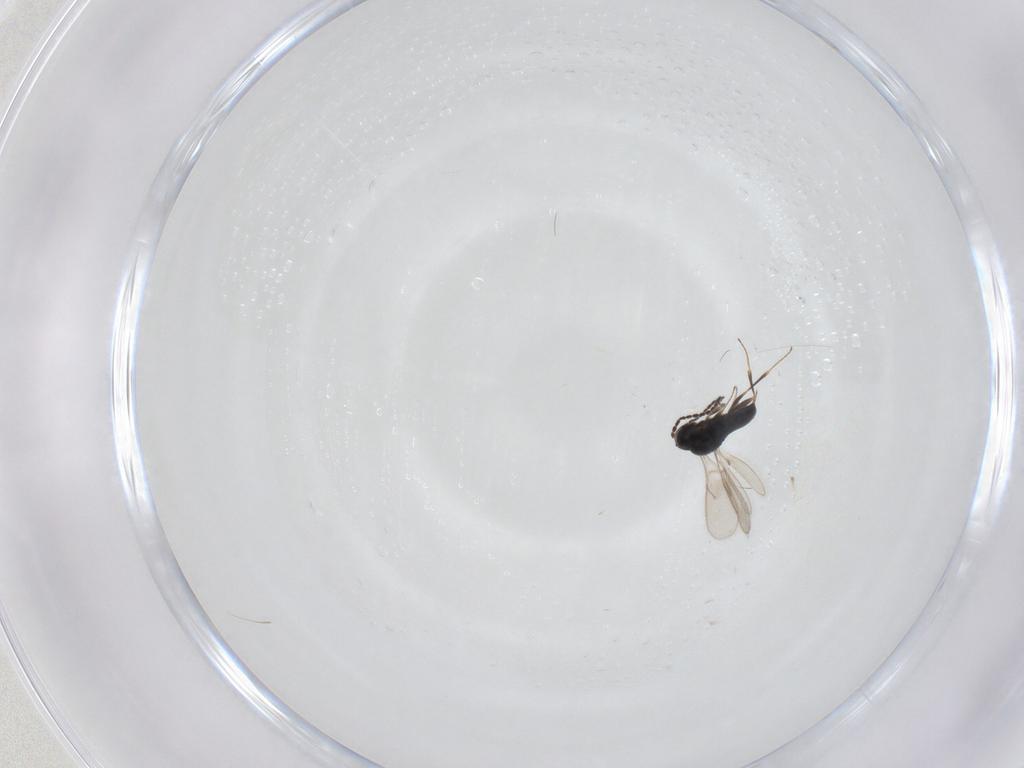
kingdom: Animalia
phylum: Arthropoda
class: Insecta
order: Hymenoptera
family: Scelionidae
